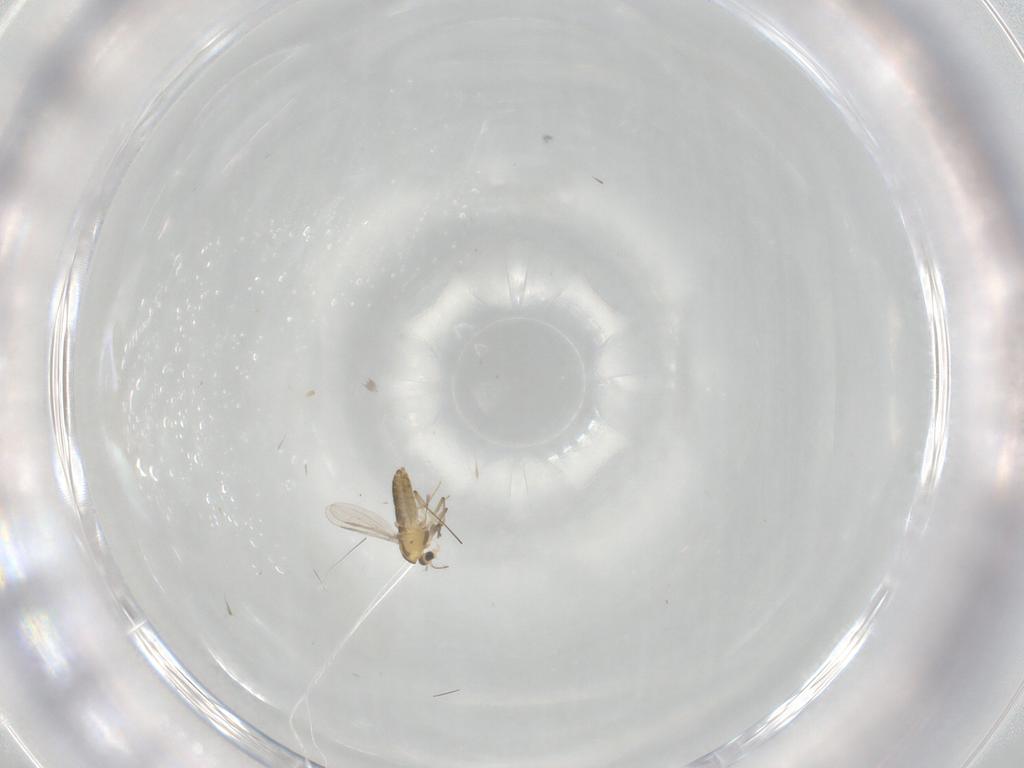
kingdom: Animalia
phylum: Arthropoda
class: Insecta
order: Diptera
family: Chironomidae
